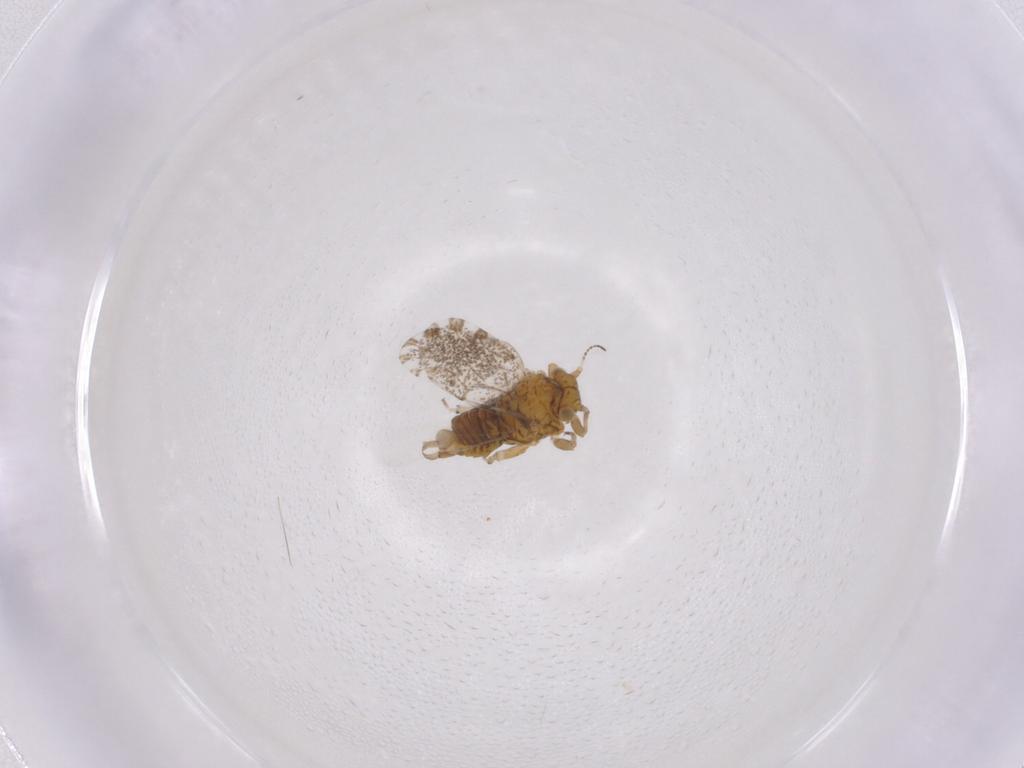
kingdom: Animalia
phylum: Arthropoda
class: Insecta
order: Hemiptera
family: Psylloidea_incertae_sedis
